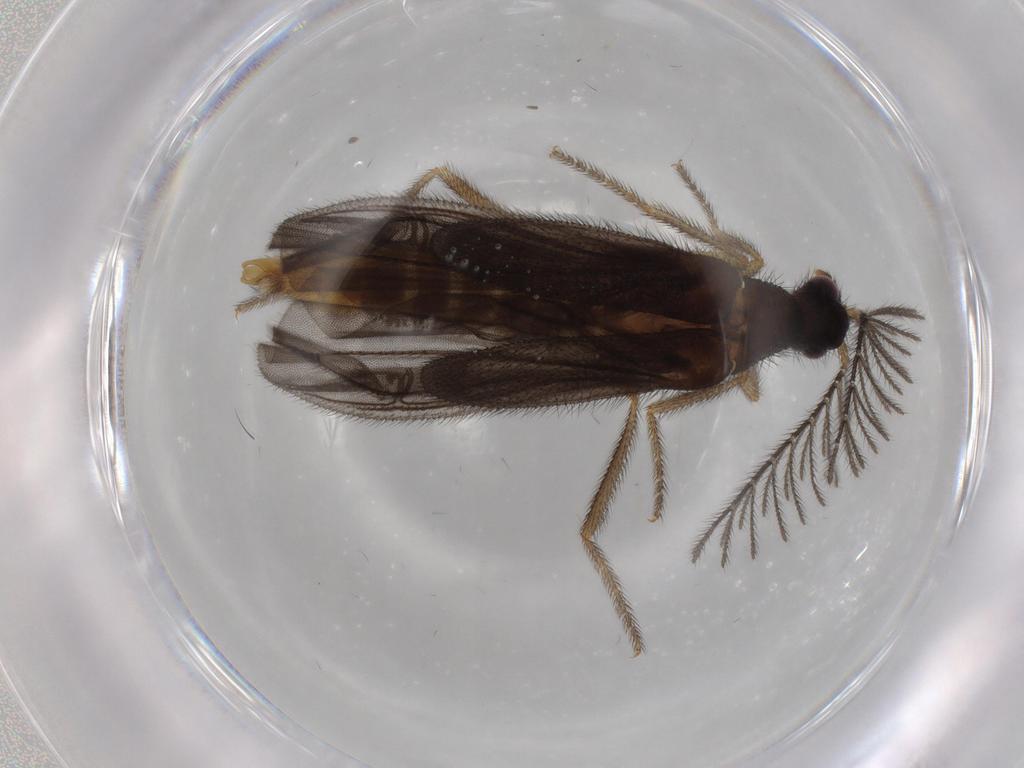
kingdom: Animalia
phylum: Arthropoda
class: Insecta
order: Coleoptera
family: Phengodidae
